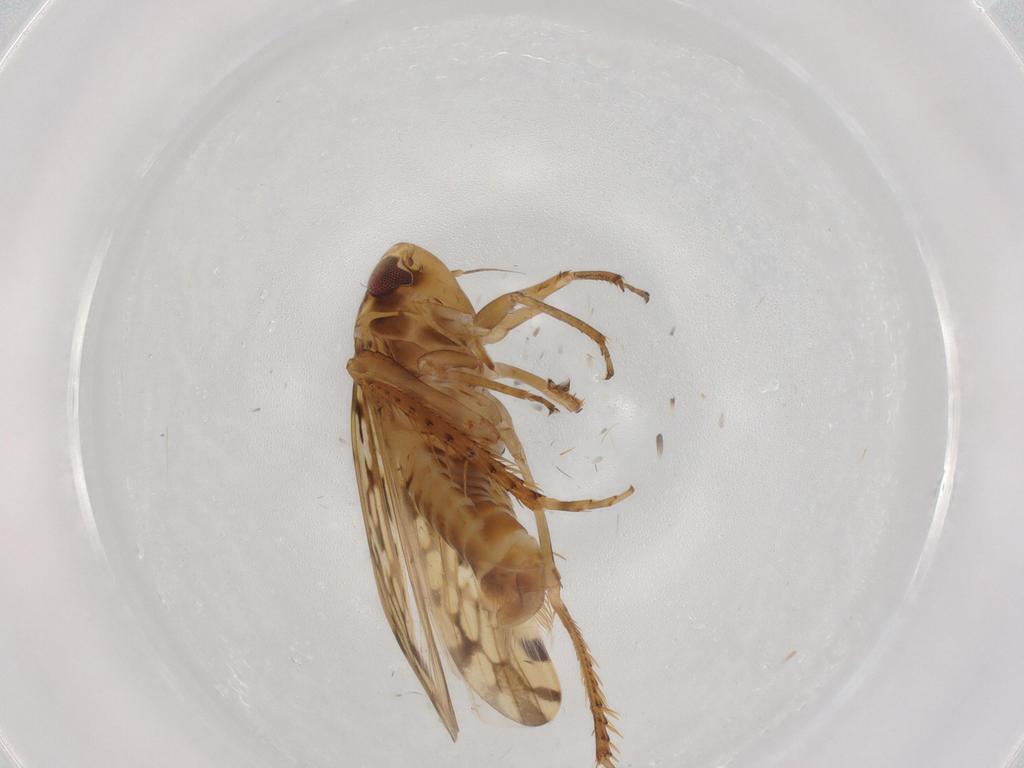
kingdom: Animalia
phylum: Arthropoda
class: Insecta
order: Hemiptera
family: Cicadellidae
